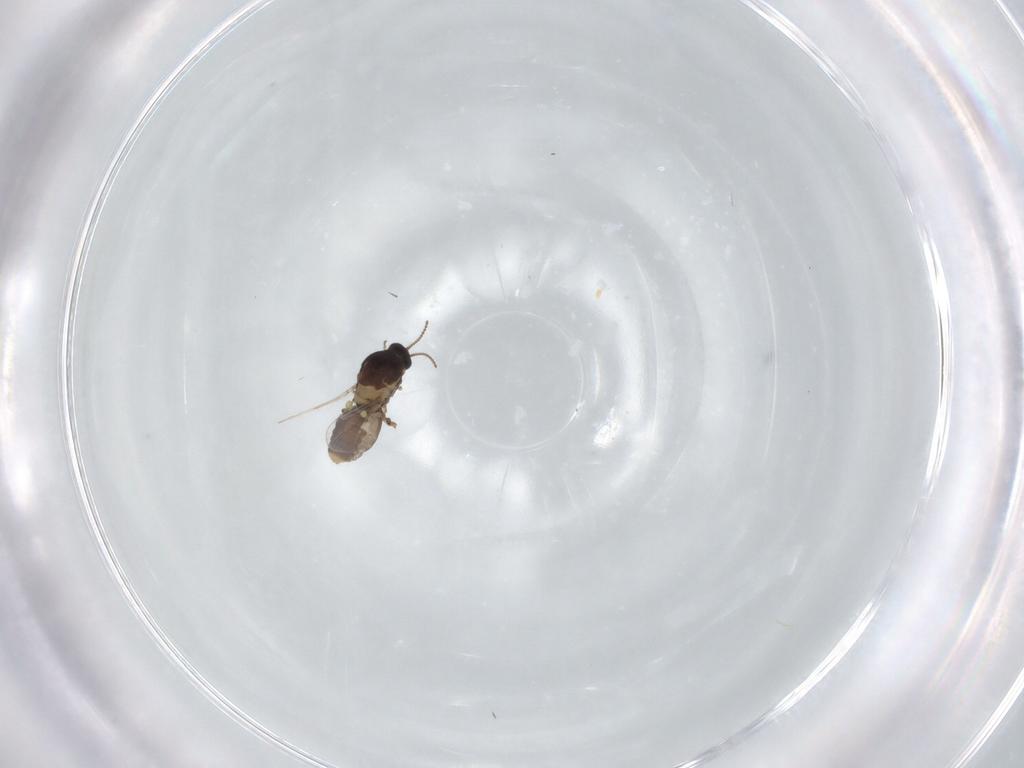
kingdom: Animalia
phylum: Arthropoda
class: Insecta
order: Diptera
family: Ceratopogonidae
